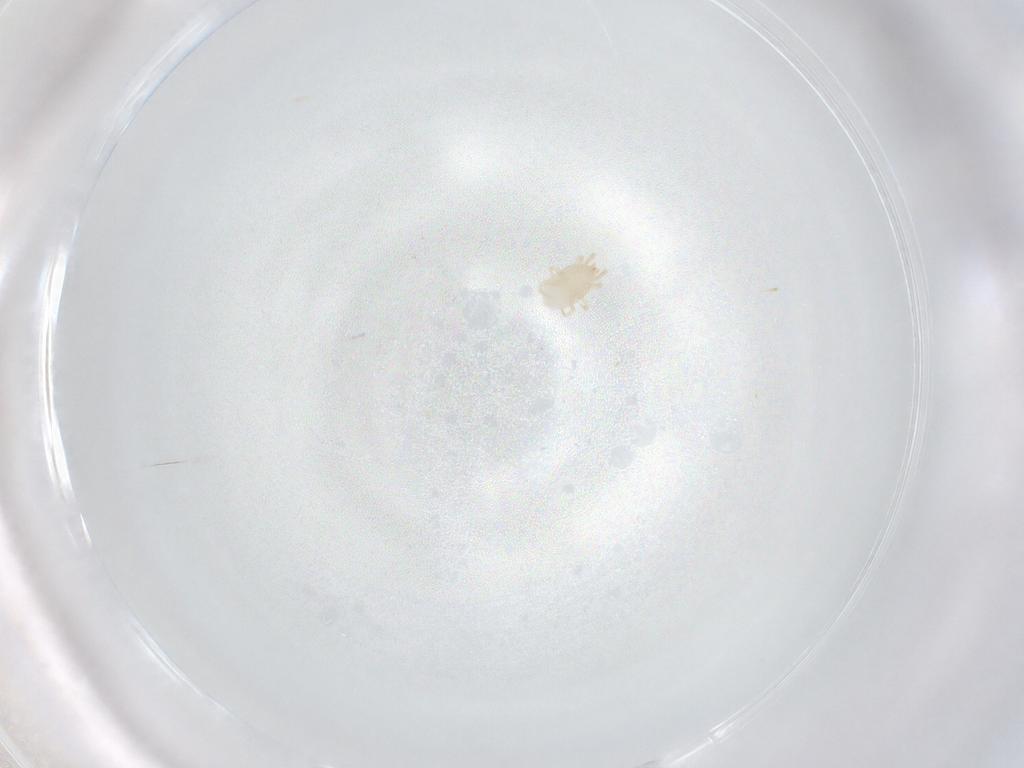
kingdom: Animalia
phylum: Arthropoda
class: Arachnida
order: Mesostigmata
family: Melicharidae
